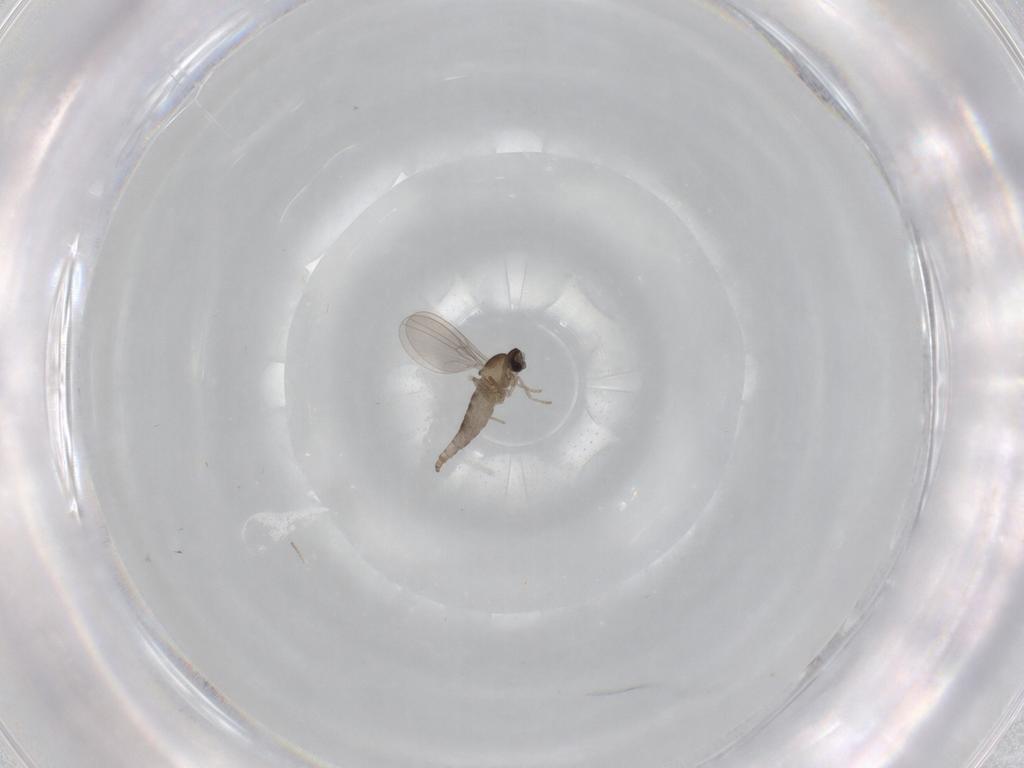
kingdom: Animalia
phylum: Arthropoda
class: Insecta
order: Diptera
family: Cecidomyiidae
